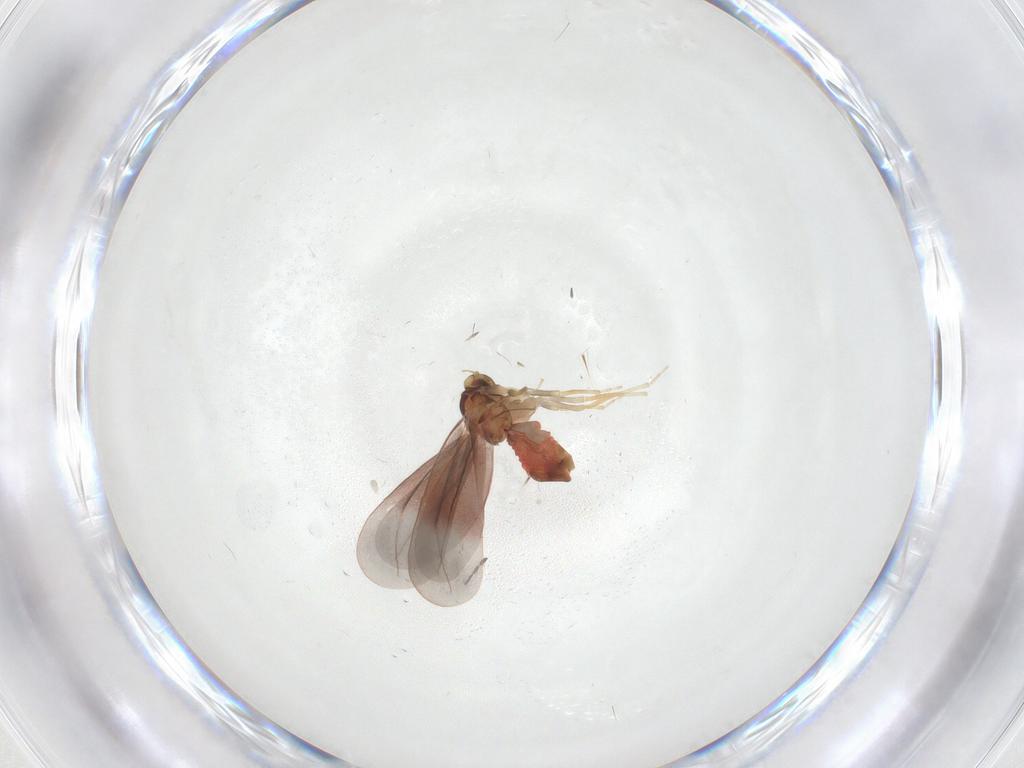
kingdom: Animalia
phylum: Arthropoda
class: Insecta
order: Hemiptera
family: Aleyrodidae
